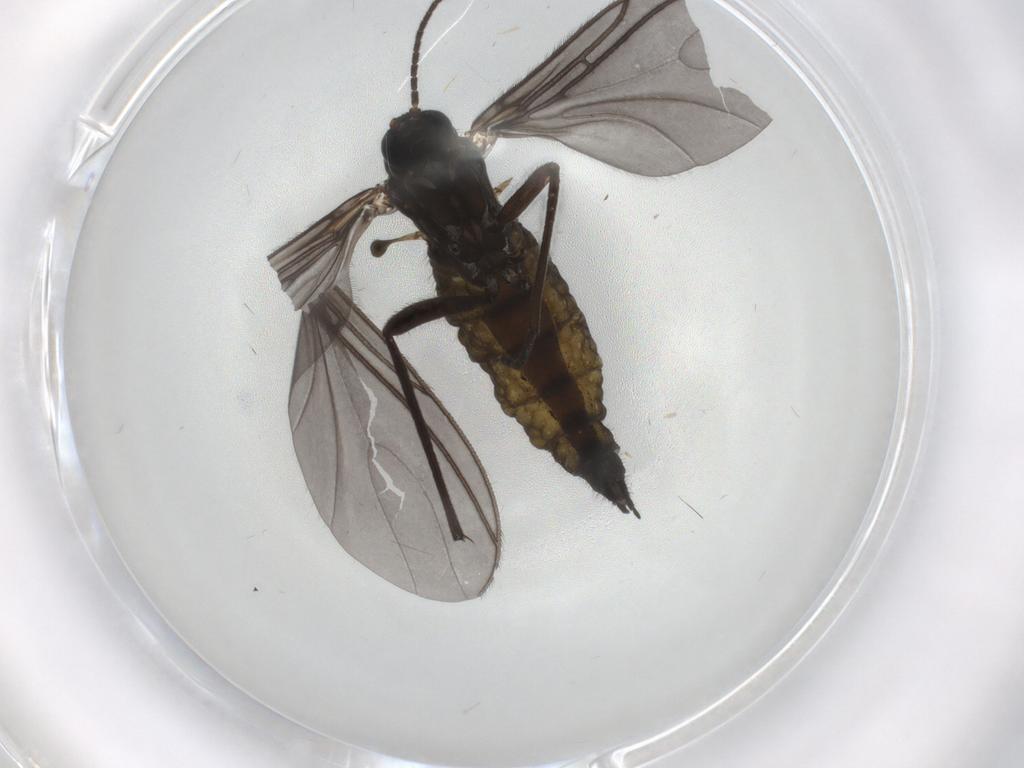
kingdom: Animalia
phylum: Arthropoda
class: Insecta
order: Diptera
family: Sciaridae
